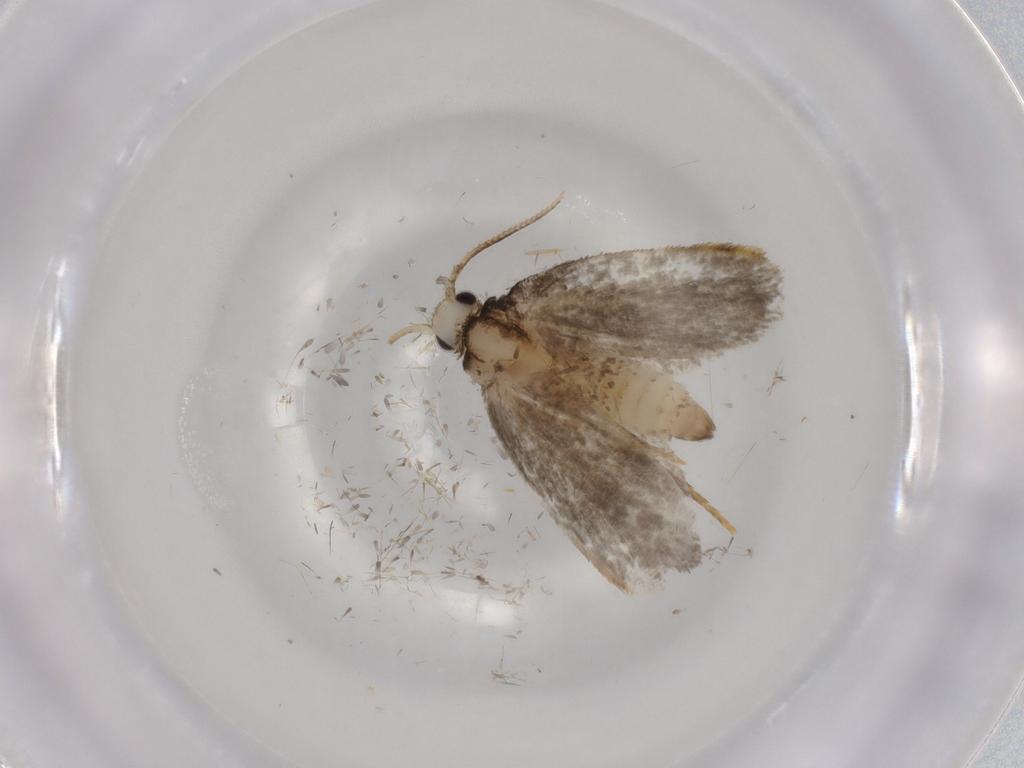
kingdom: Animalia
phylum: Arthropoda
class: Insecta
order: Lepidoptera
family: Psychidae
